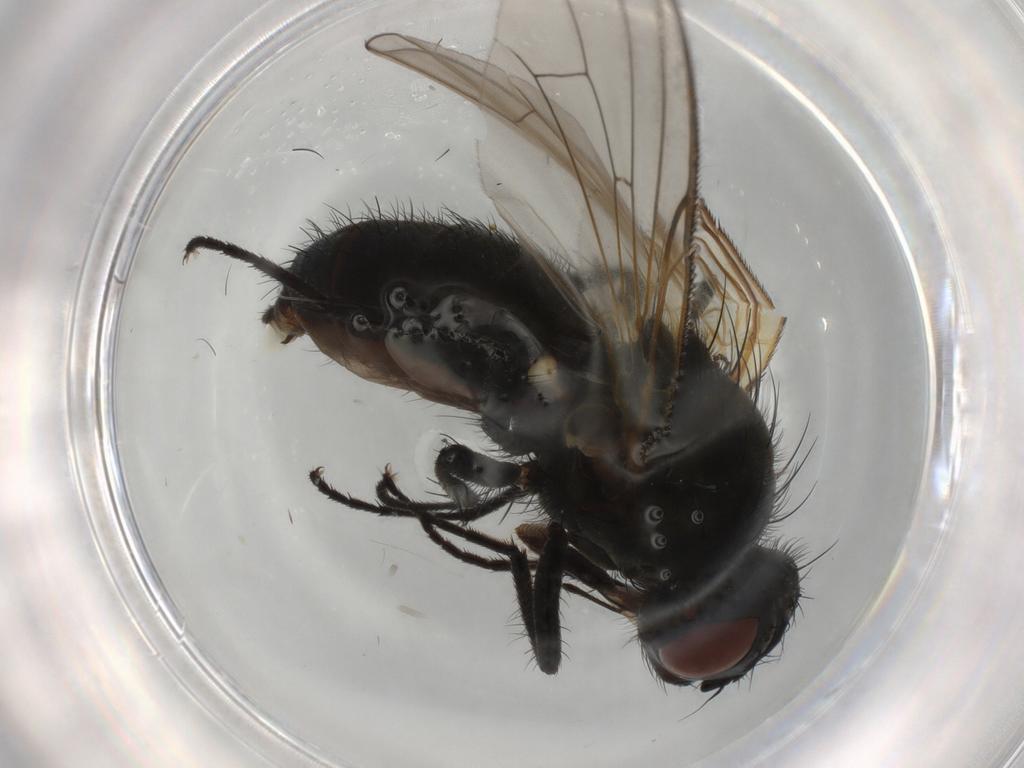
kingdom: Animalia
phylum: Arthropoda
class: Insecta
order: Diptera
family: Anthomyiidae
